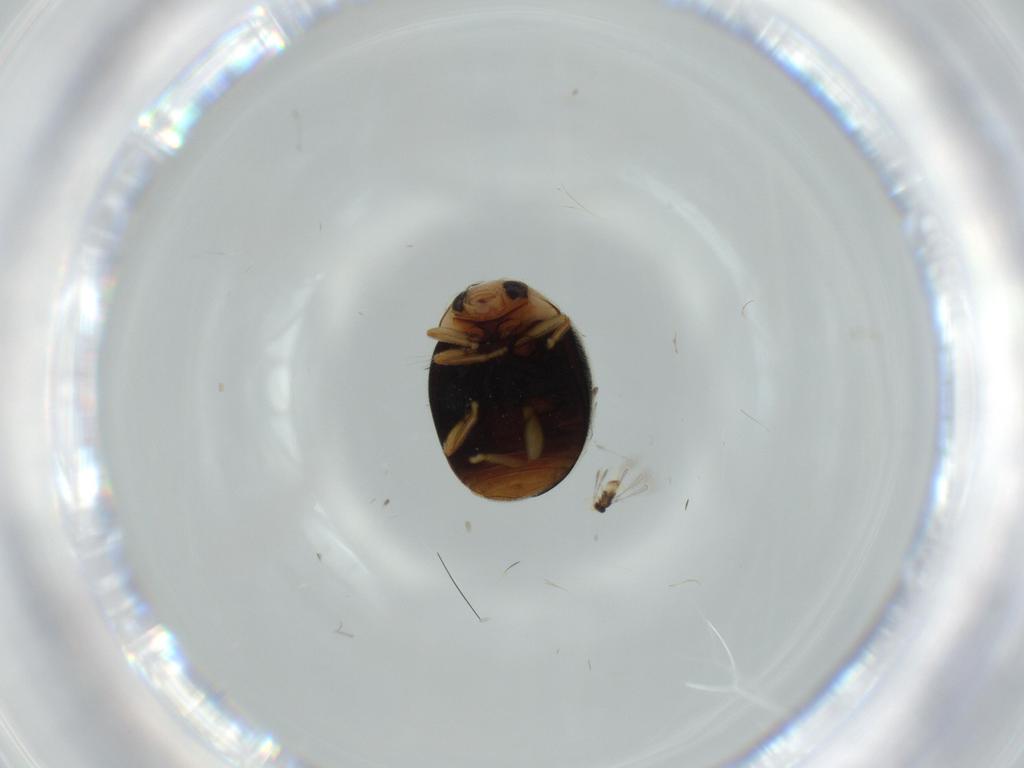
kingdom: Animalia
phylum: Arthropoda
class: Insecta
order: Coleoptera
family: Coccinellidae
